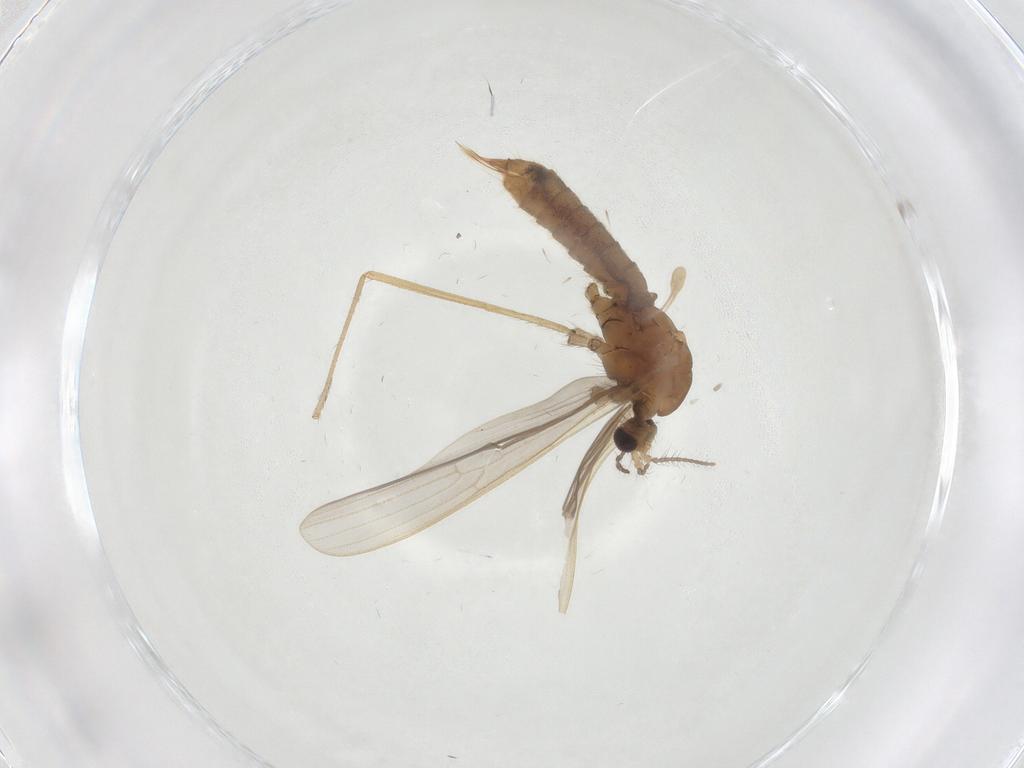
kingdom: Animalia
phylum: Arthropoda
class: Insecta
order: Diptera
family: Limoniidae
